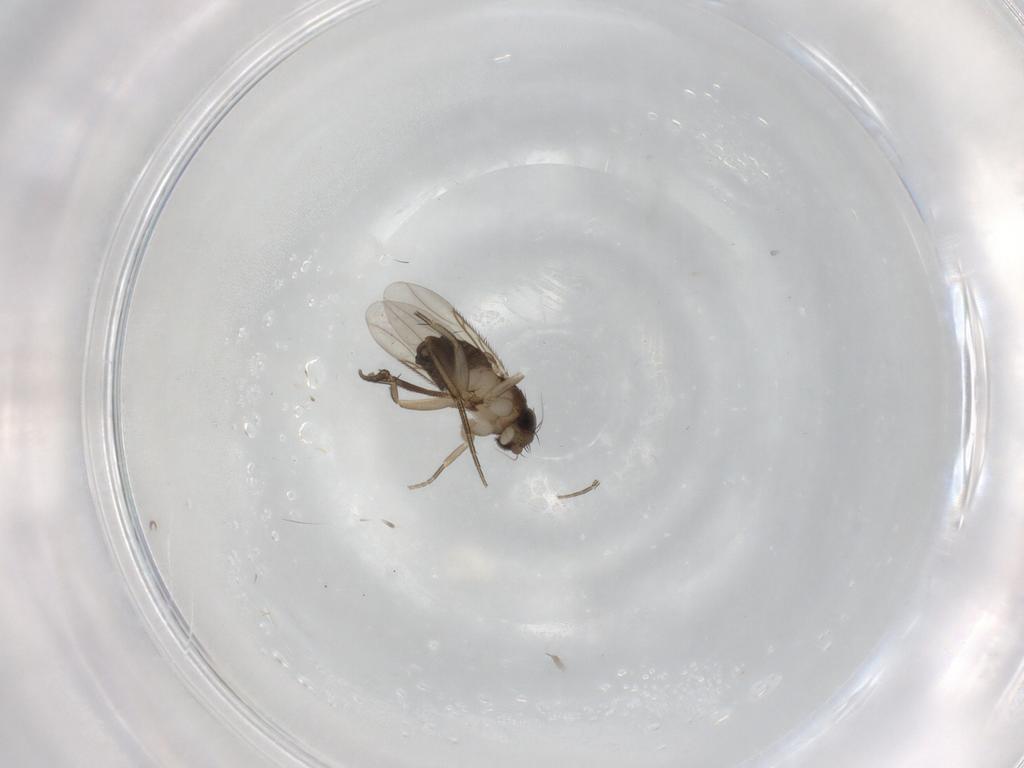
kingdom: Animalia
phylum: Arthropoda
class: Insecta
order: Diptera
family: Phoridae
